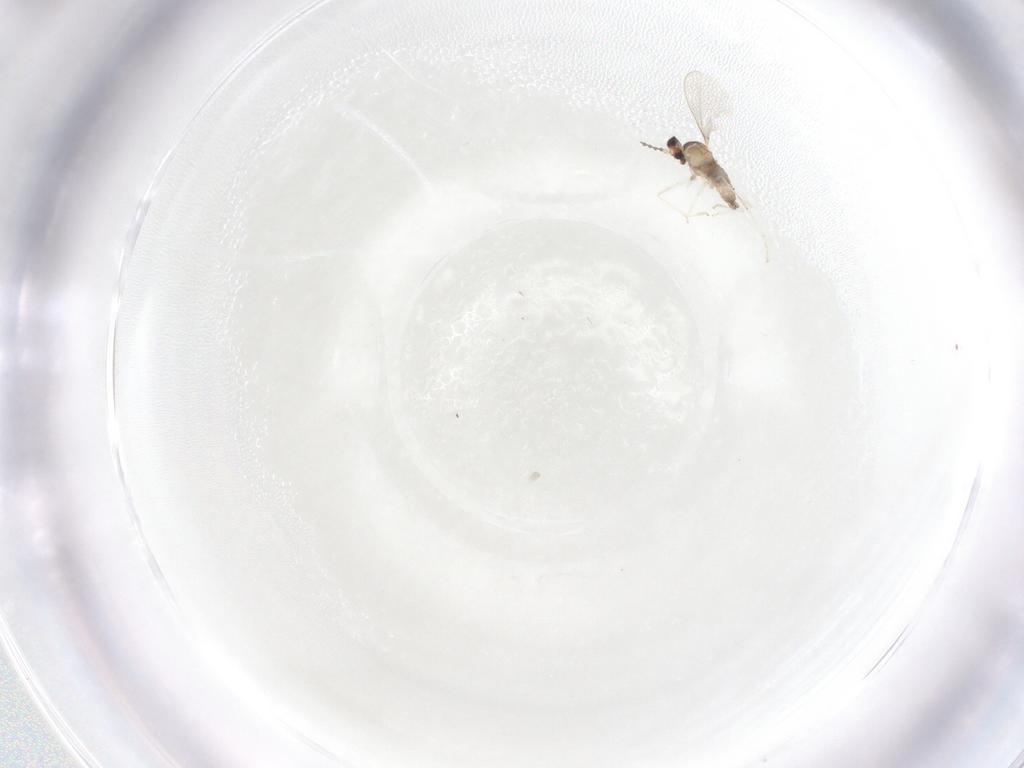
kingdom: Animalia
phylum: Arthropoda
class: Insecta
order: Diptera
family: Cecidomyiidae
